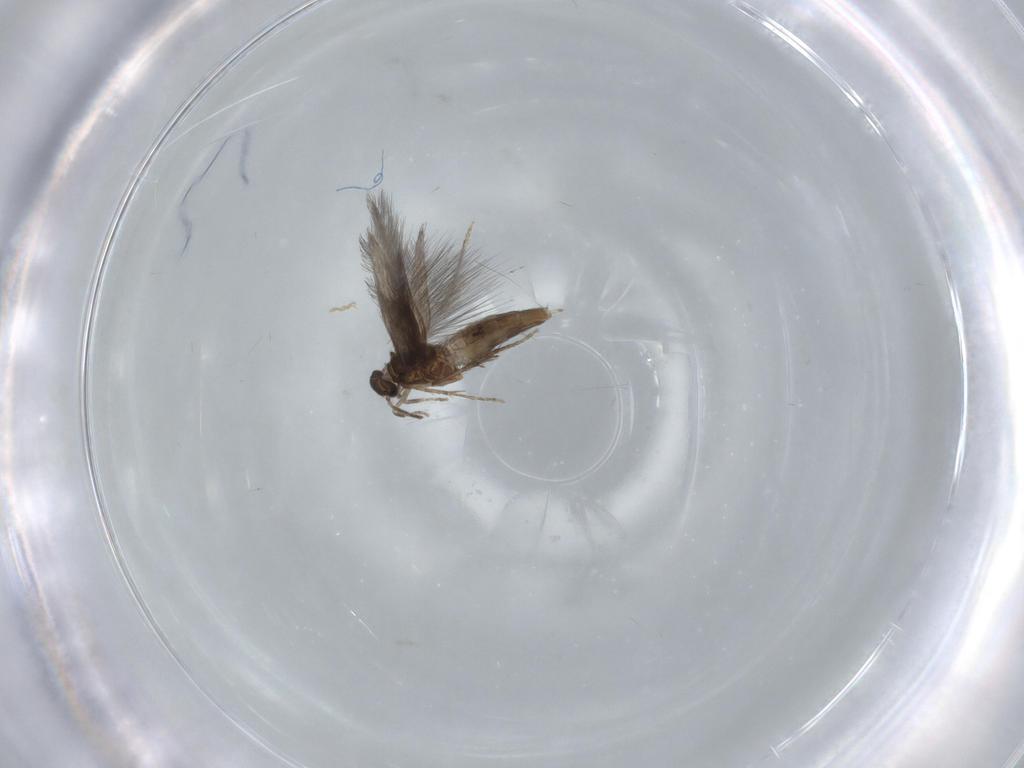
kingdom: Animalia
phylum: Arthropoda
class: Insecta
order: Trichoptera
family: Hydroptilidae
